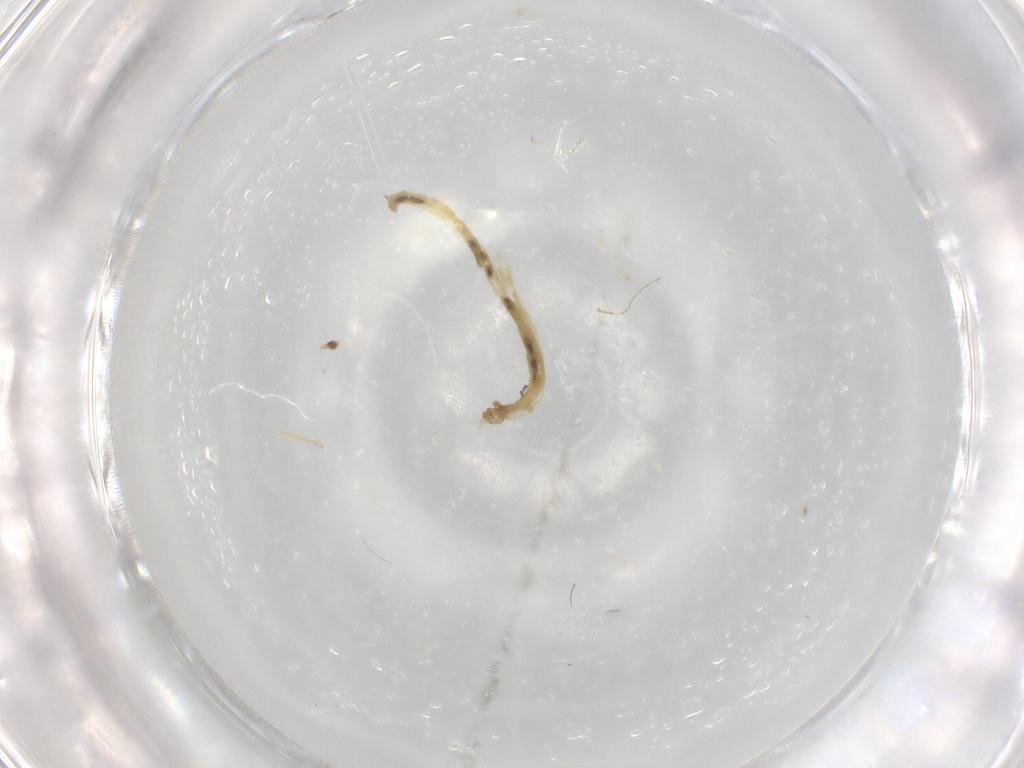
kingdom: Animalia
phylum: Arthropoda
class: Insecta
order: Diptera
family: Chironomidae
